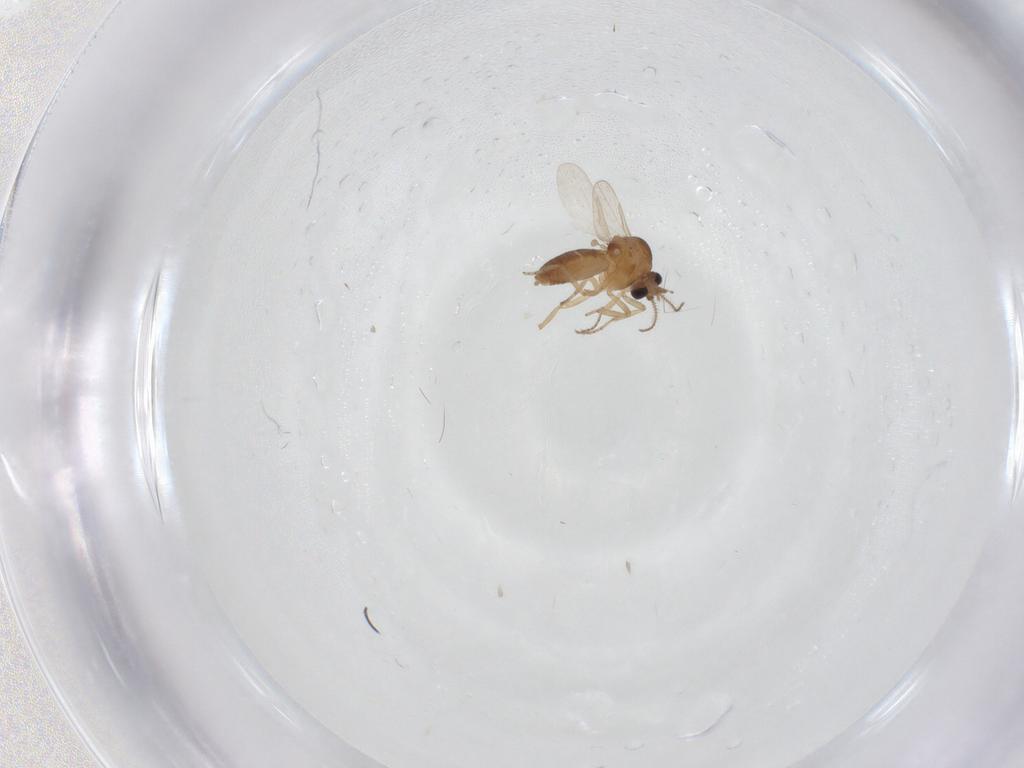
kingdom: Animalia
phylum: Arthropoda
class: Insecta
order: Diptera
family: Ceratopogonidae
